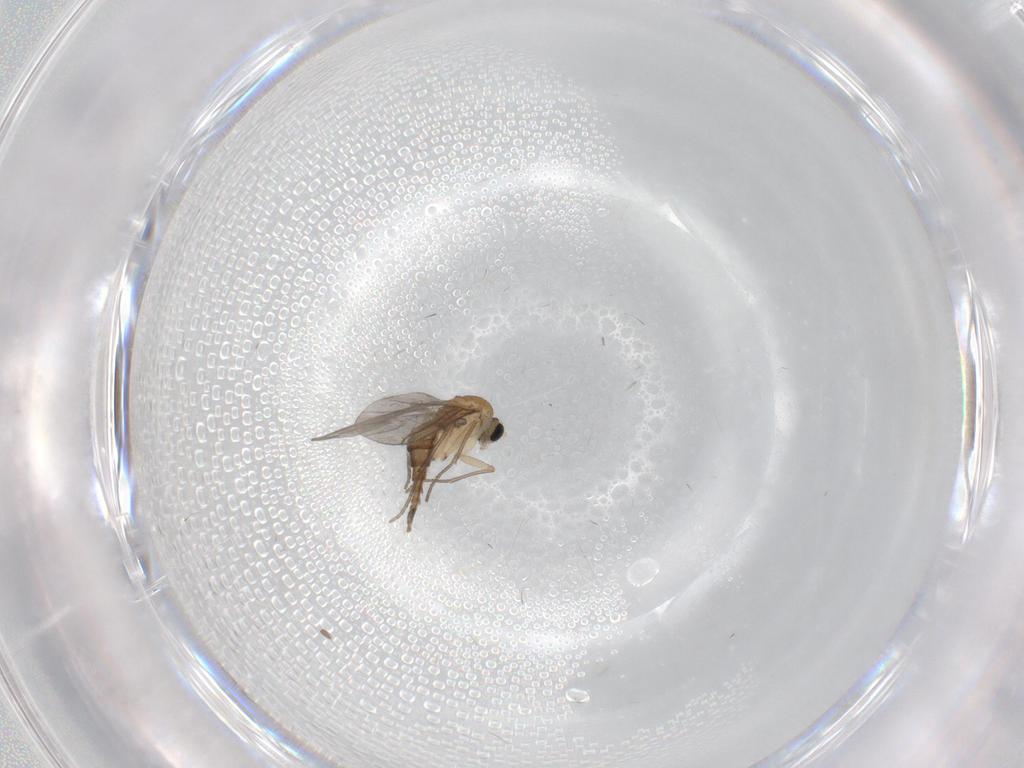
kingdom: Animalia
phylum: Arthropoda
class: Insecta
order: Diptera
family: Sciaridae
